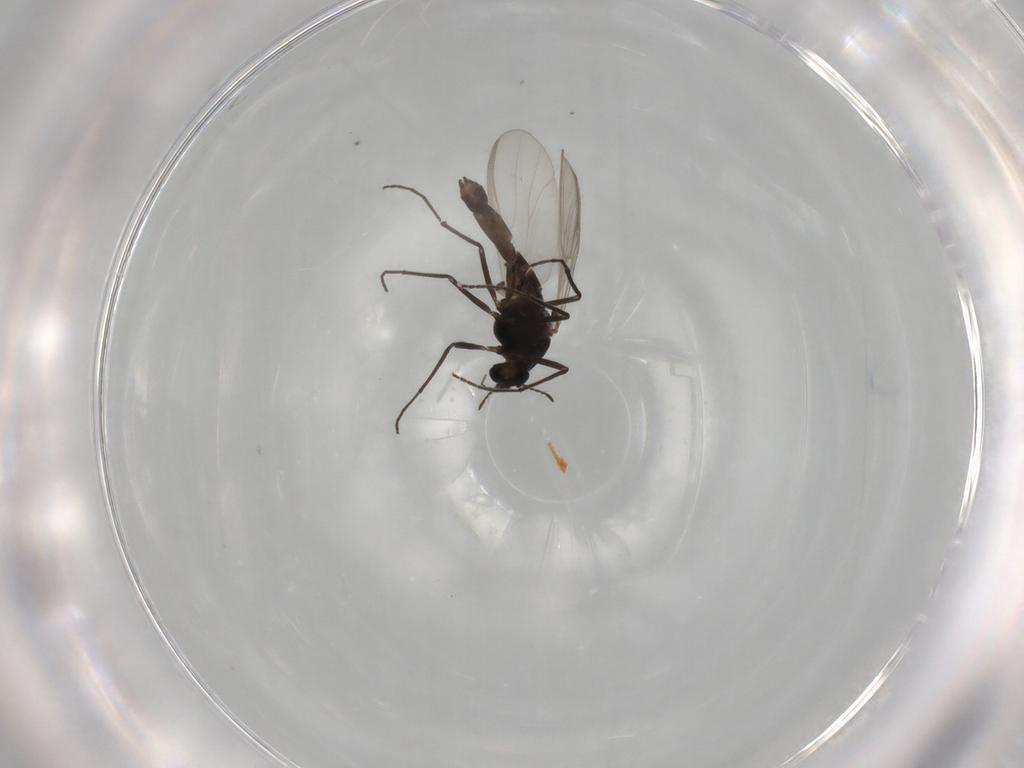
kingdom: Animalia
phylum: Arthropoda
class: Insecta
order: Diptera
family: Chironomidae
